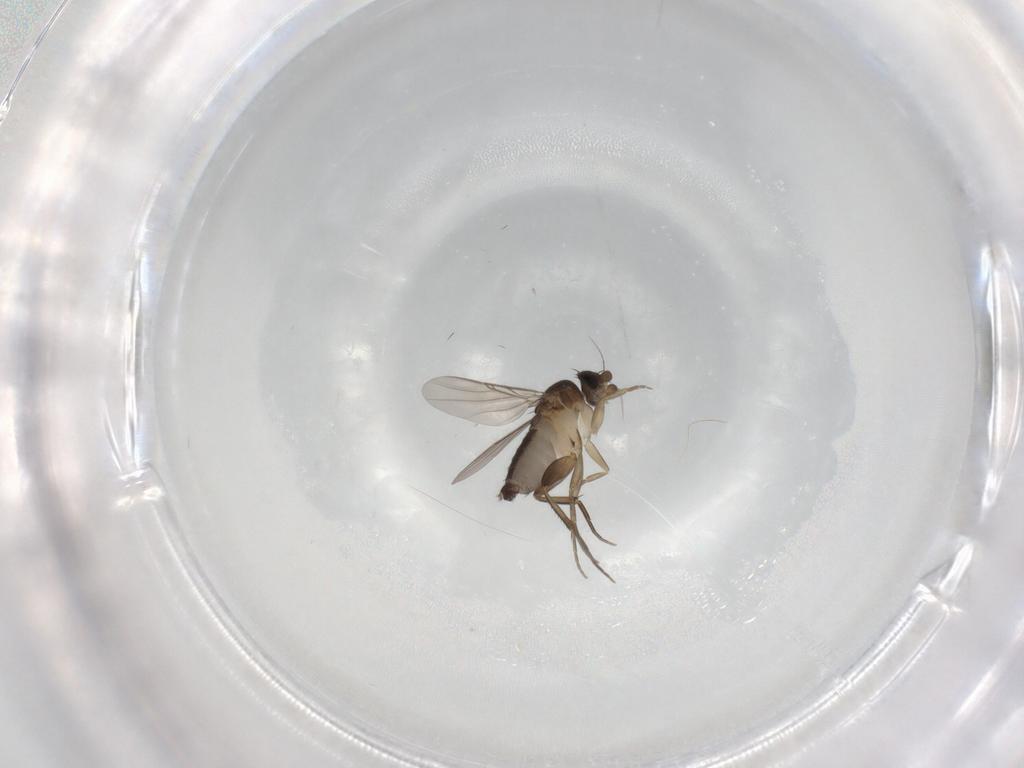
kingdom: Animalia
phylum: Arthropoda
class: Insecta
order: Diptera
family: Phoridae
